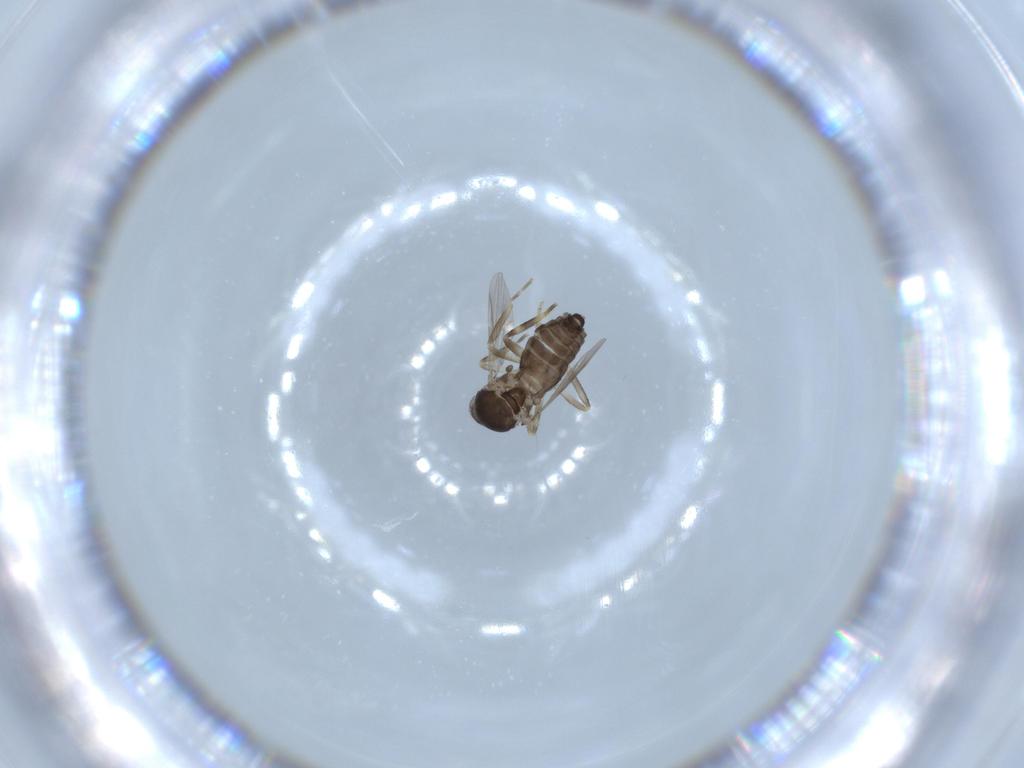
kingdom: Animalia
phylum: Arthropoda
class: Insecta
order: Diptera
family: Ceratopogonidae
